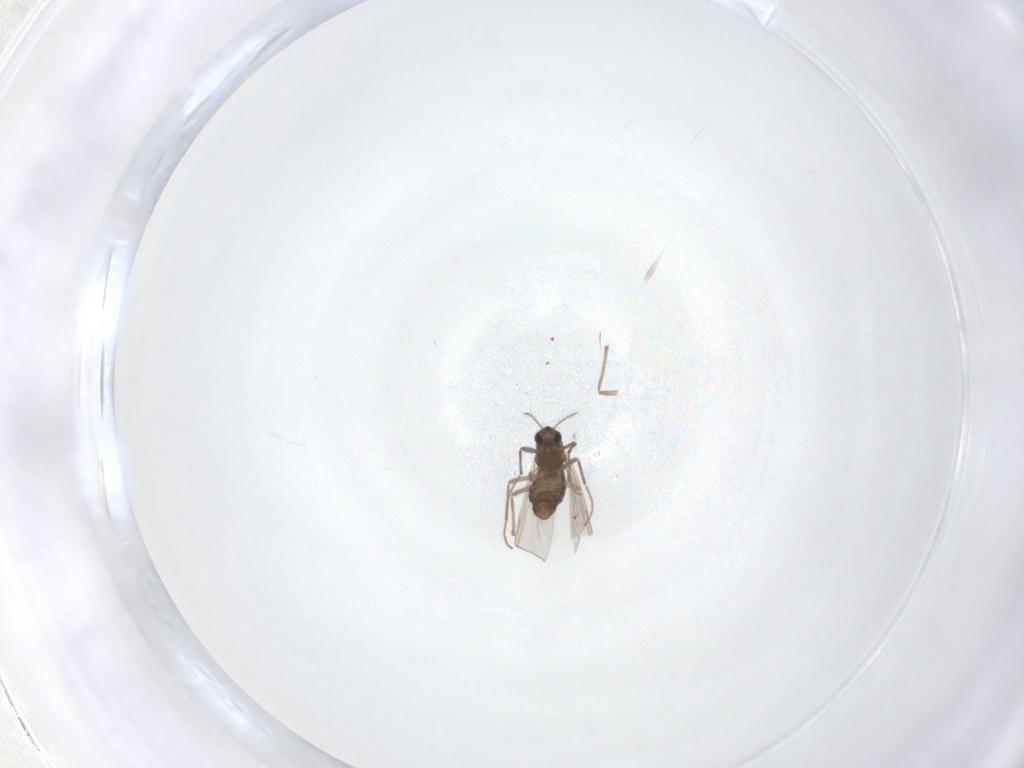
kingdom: Animalia
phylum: Arthropoda
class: Insecta
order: Diptera
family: Chironomidae
